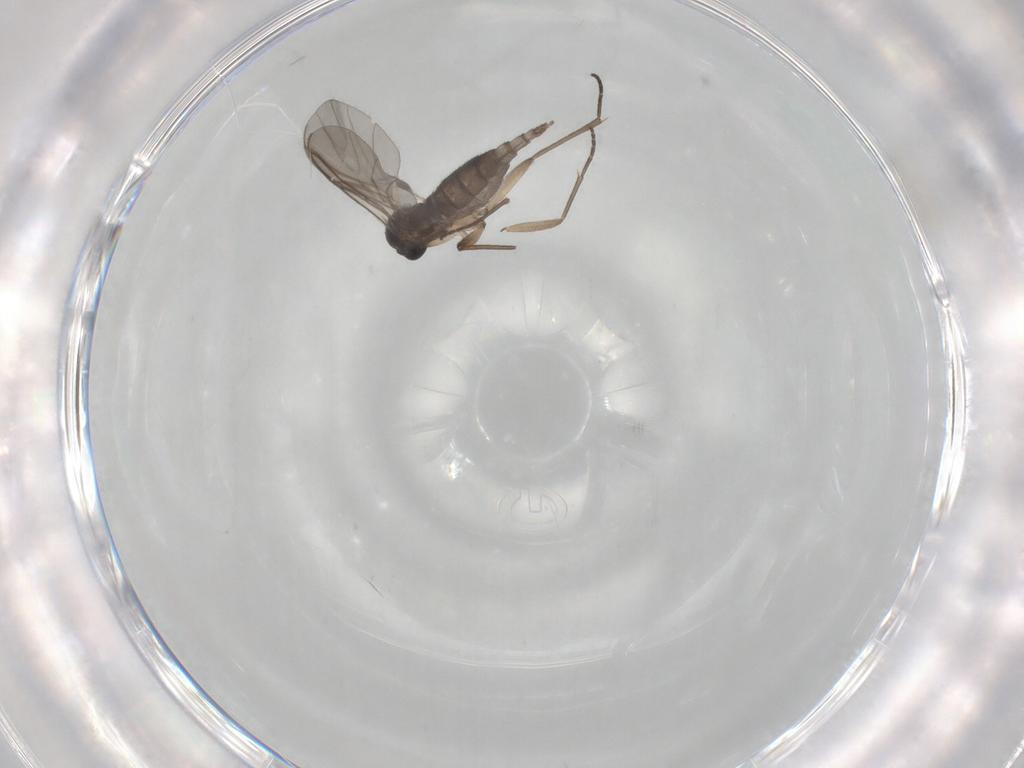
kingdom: Animalia
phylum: Arthropoda
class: Insecta
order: Diptera
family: Sciaridae
